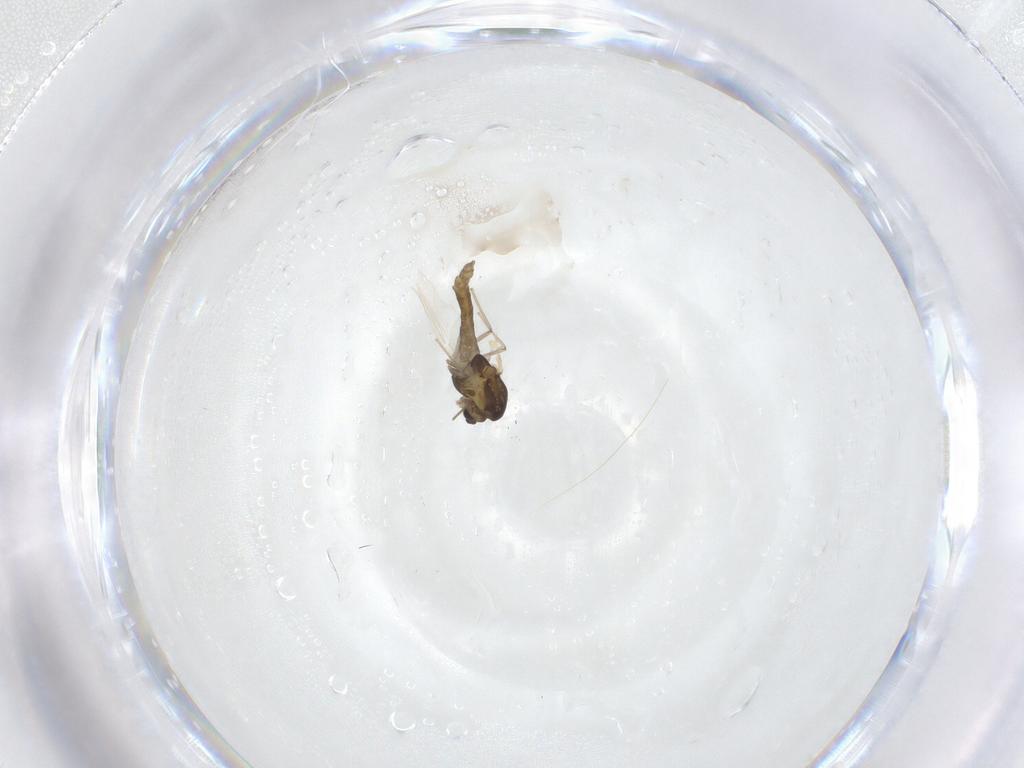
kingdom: Animalia
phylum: Arthropoda
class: Insecta
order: Diptera
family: Chironomidae
